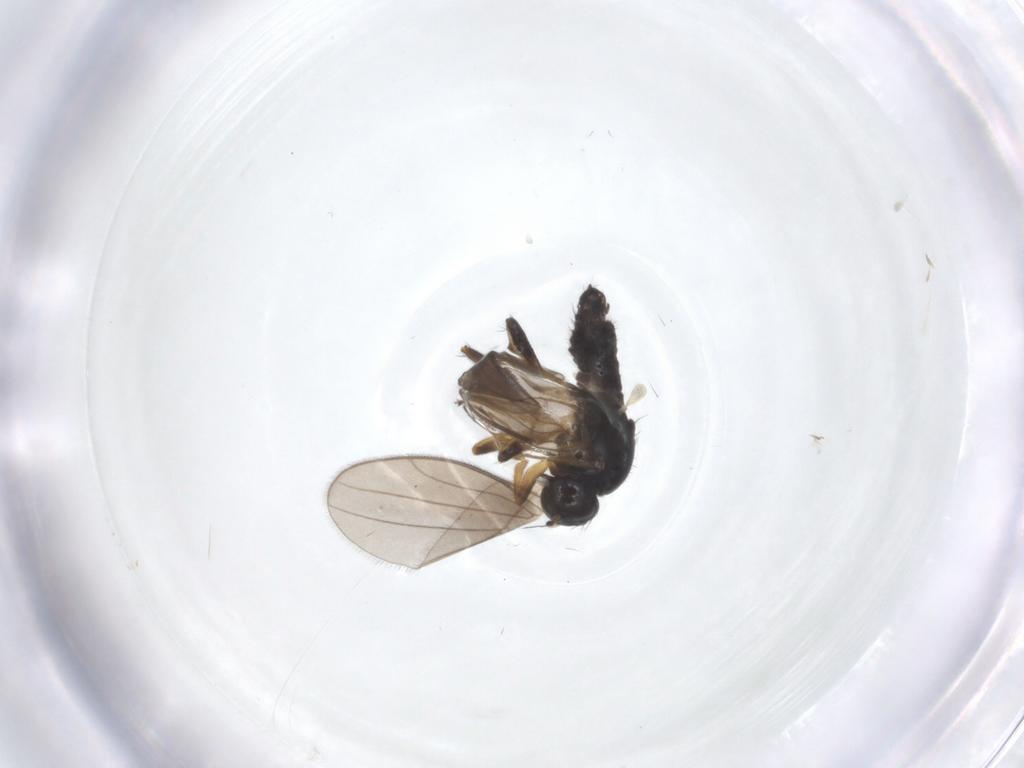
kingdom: Animalia
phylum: Arthropoda
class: Insecta
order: Diptera
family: Hybotidae
